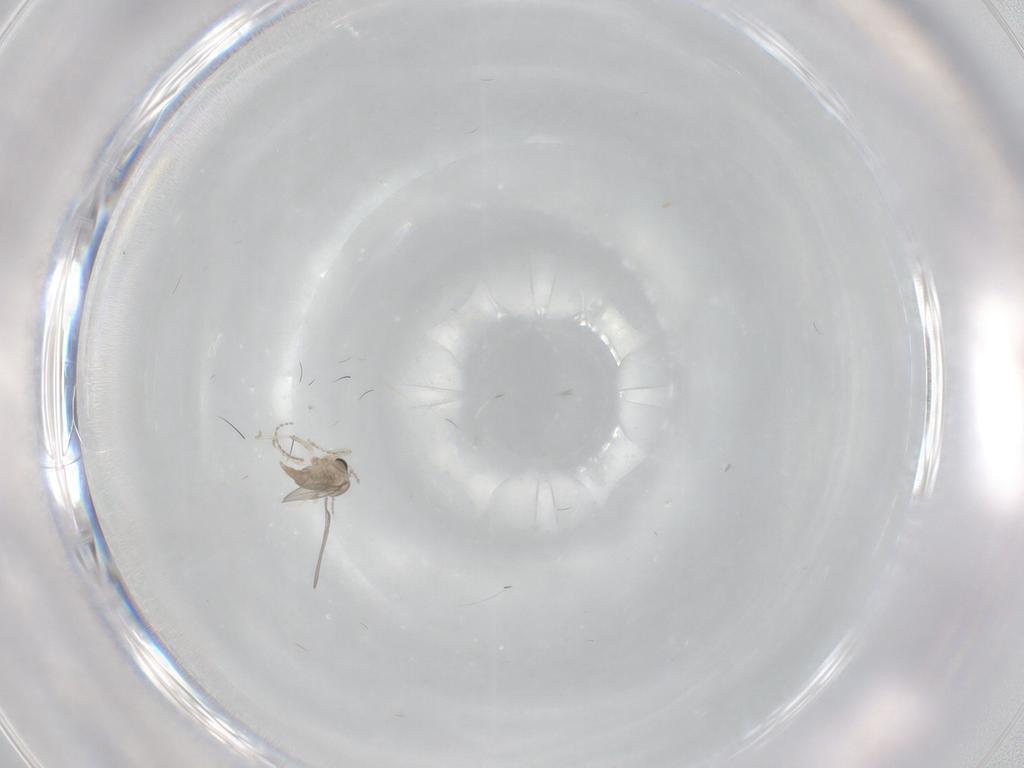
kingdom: Animalia
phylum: Arthropoda
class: Insecta
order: Diptera
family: Cecidomyiidae
